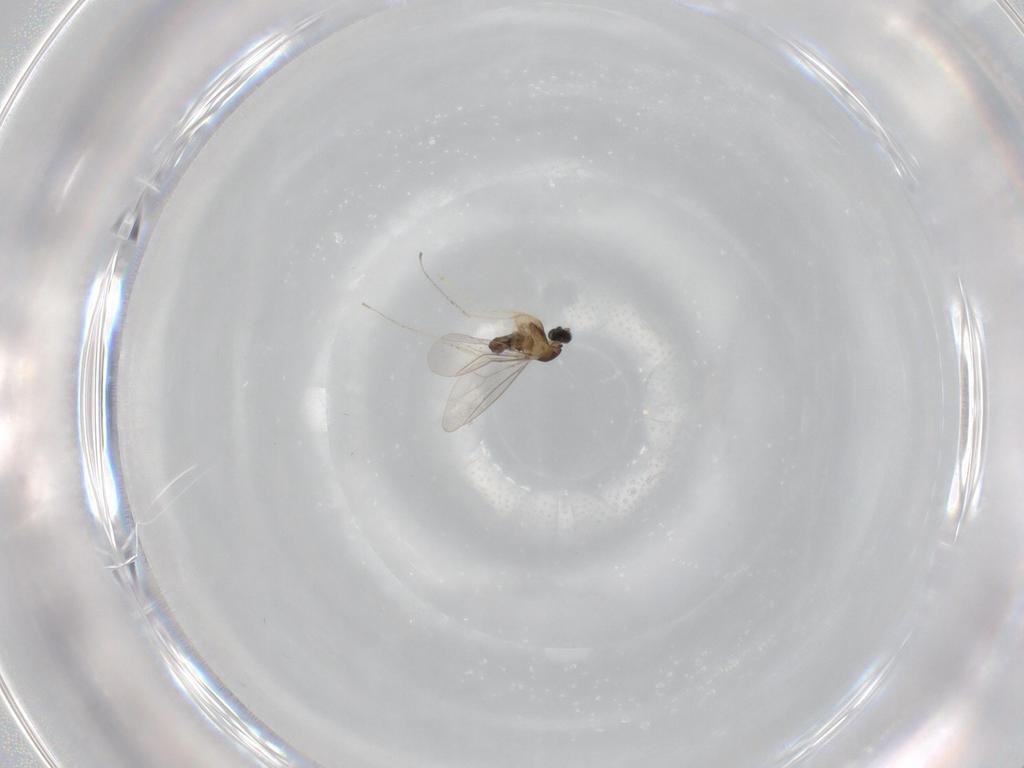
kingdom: Animalia
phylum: Arthropoda
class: Insecta
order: Diptera
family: Cecidomyiidae
